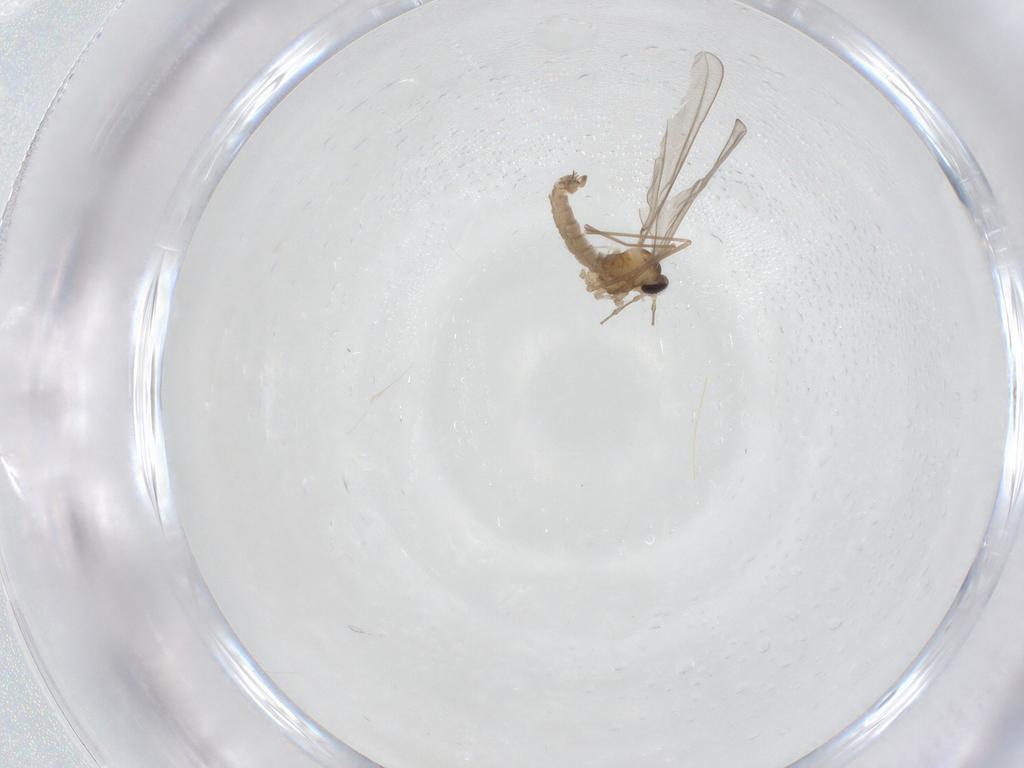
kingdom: Animalia
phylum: Arthropoda
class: Insecta
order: Diptera
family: Cecidomyiidae
